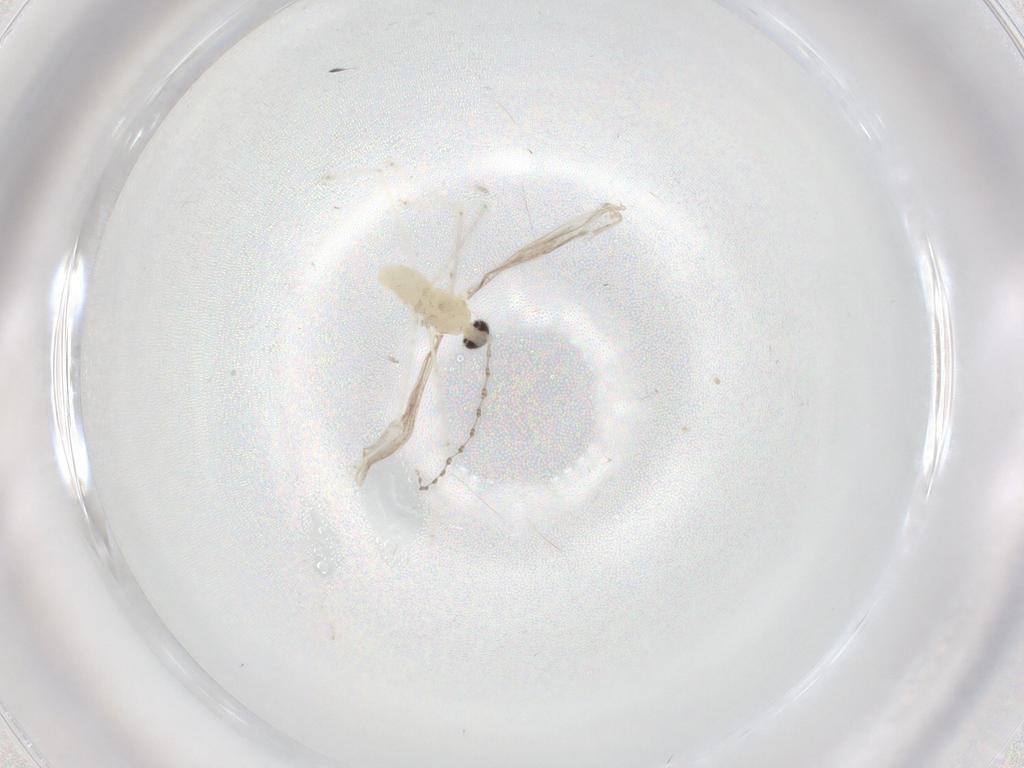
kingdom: Animalia
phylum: Arthropoda
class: Insecta
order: Diptera
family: Cecidomyiidae
